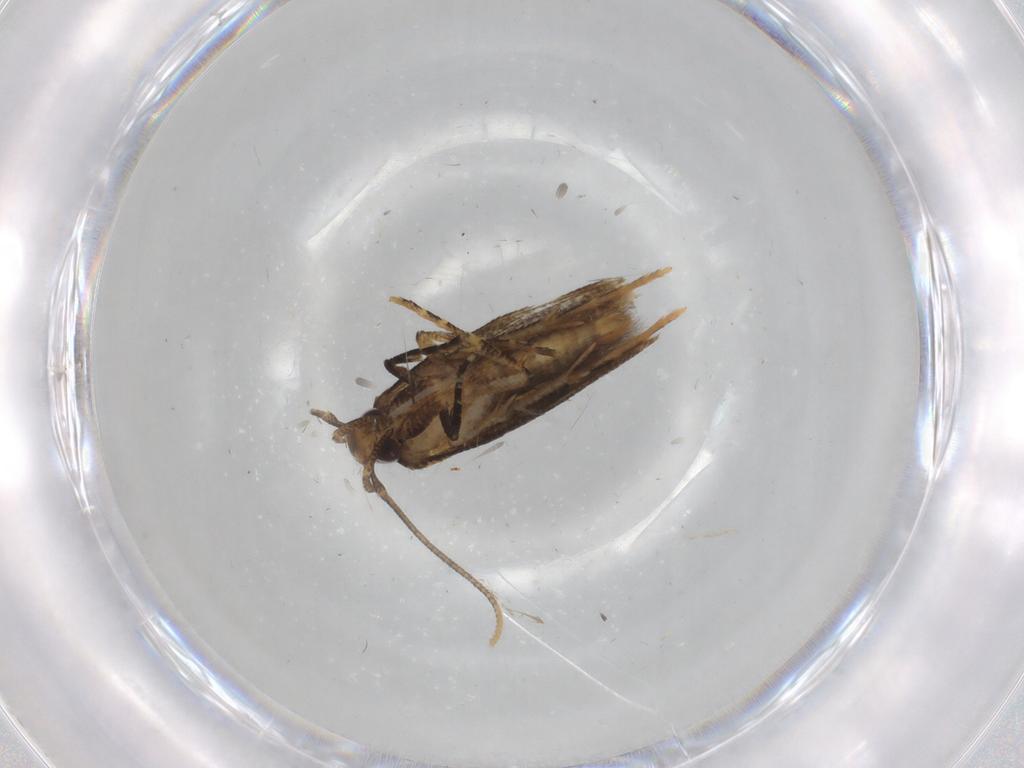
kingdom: Animalia
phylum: Arthropoda
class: Insecta
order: Lepidoptera
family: Cosmopterigidae
